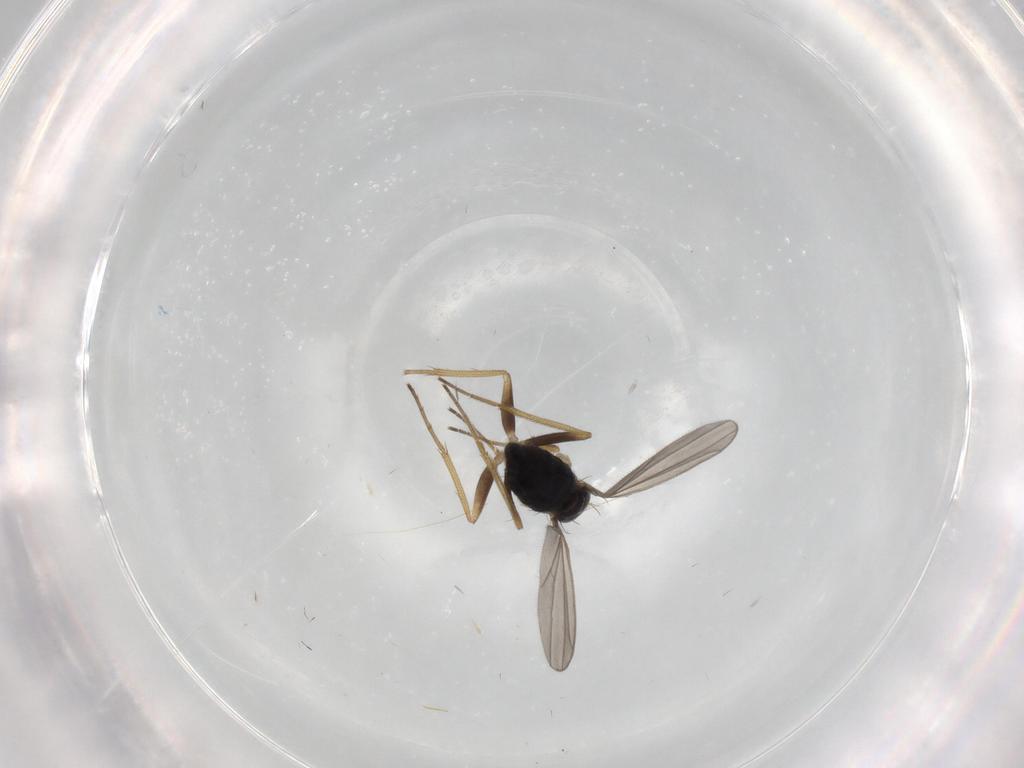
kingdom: Animalia
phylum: Arthropoda
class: Insecta
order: Diptera
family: Dolichopodidae
